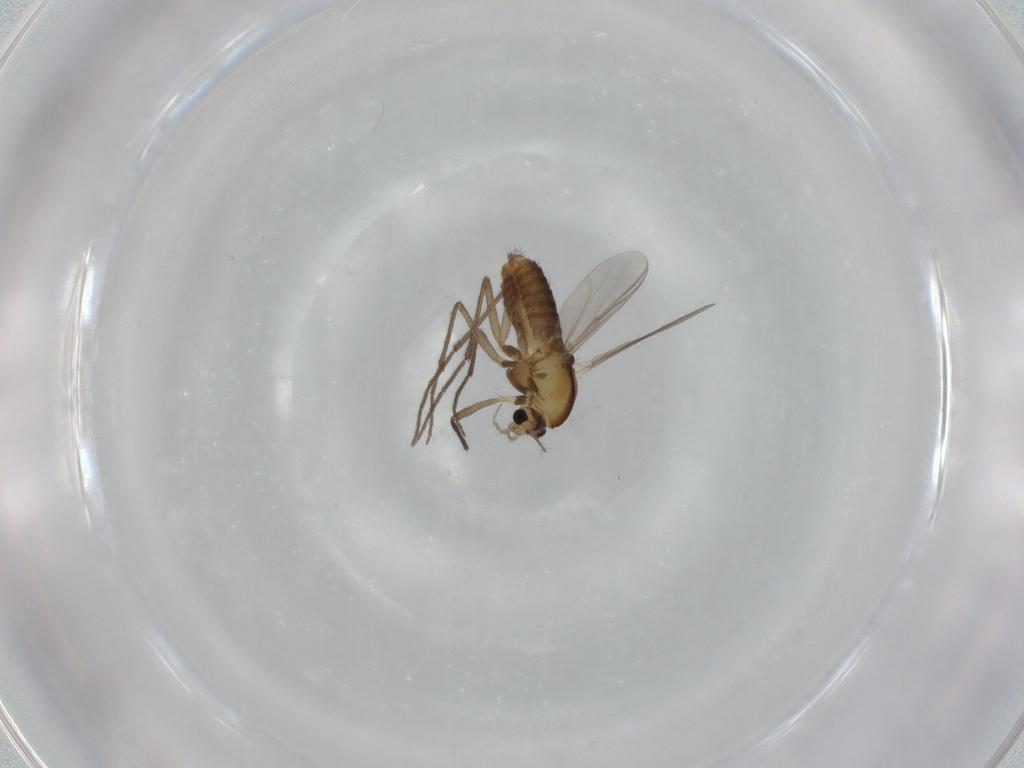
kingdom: Animalia
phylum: Arthropoda
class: Insecta
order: Diptera
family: Chironomidae
